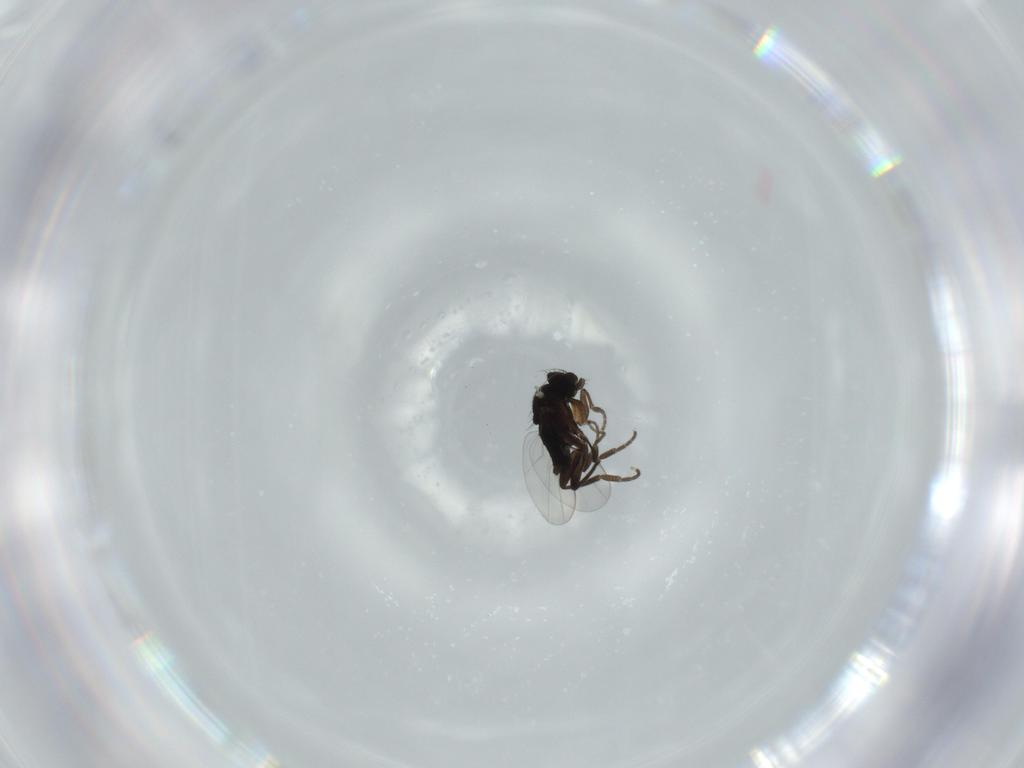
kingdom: Animalia
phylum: Arthropoda
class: Insecta
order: Diptera
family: Phoridae
